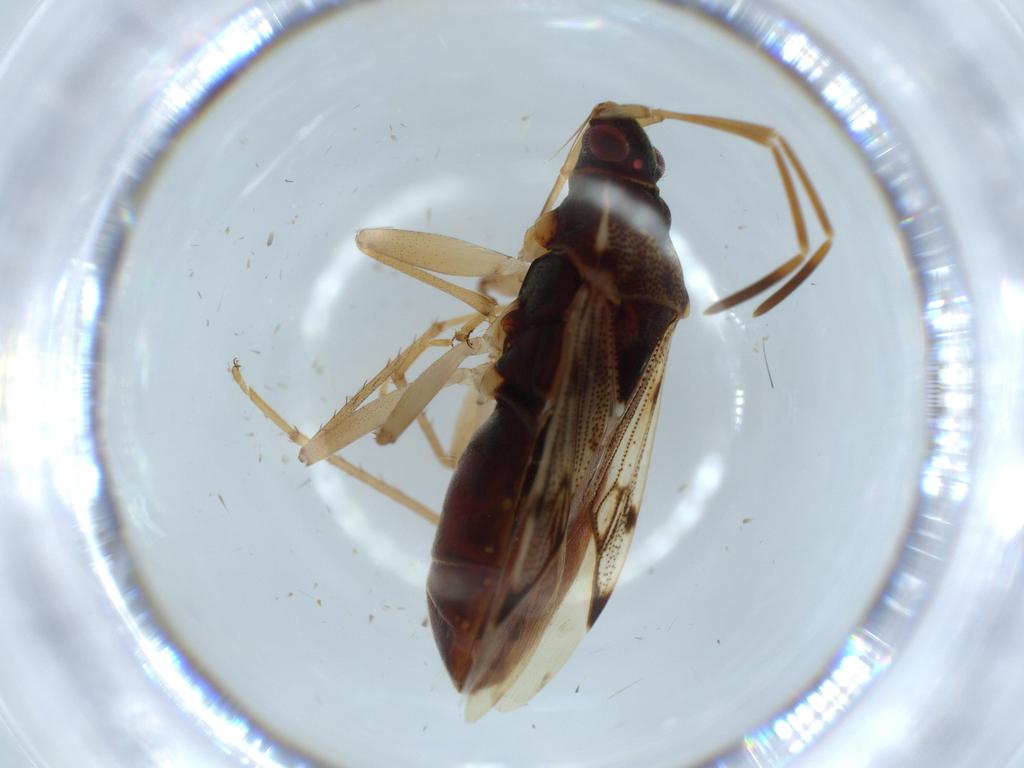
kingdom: Animalia
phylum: Arthropoda
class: Insecta
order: Hemiptera
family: Rhyparochromidae
